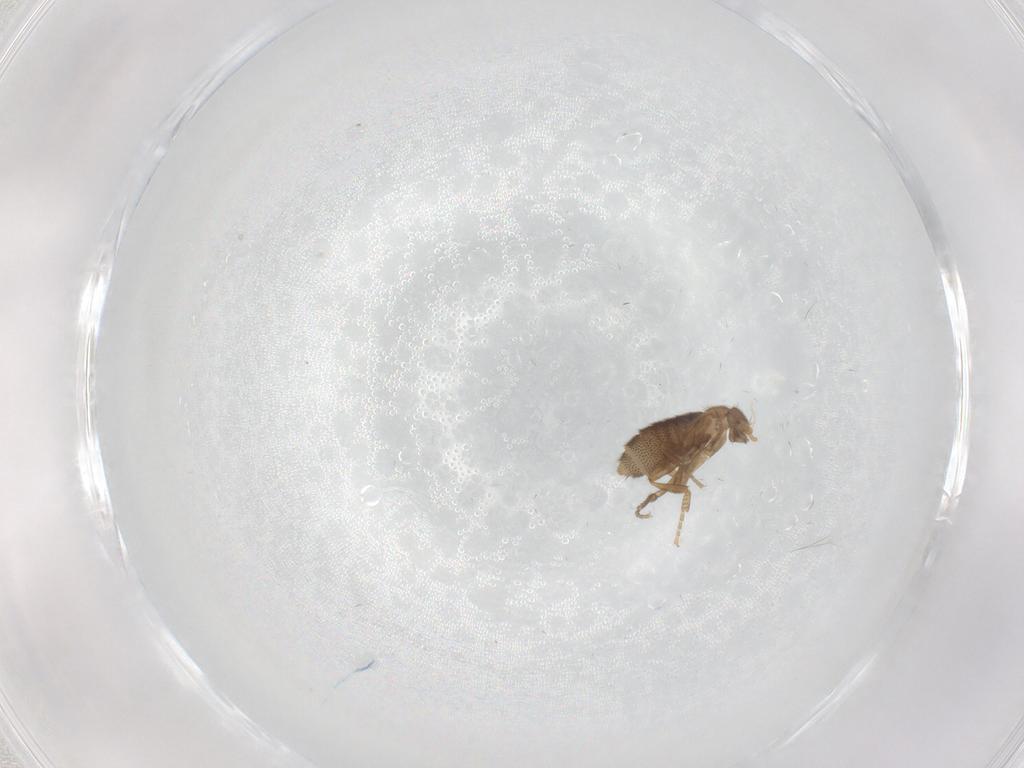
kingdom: Animalia
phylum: Arthropoda
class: Insecta
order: Diptera
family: Phoridae
